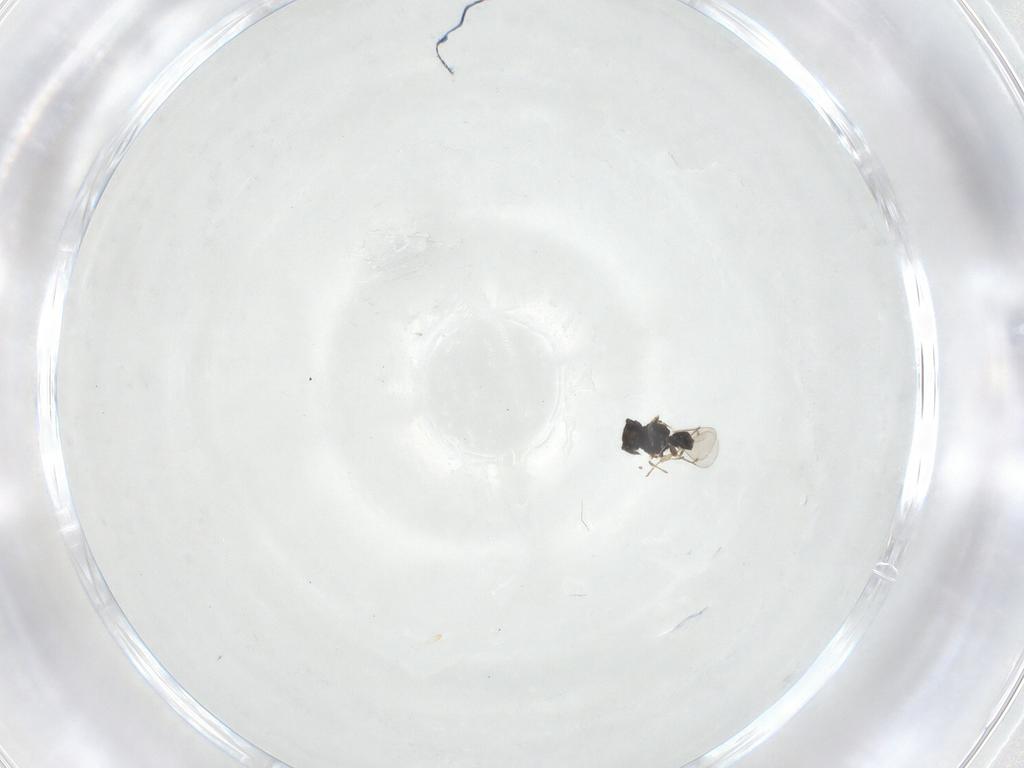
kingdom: Animalia
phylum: Arthropoda
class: Insecta
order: Hymenoptera
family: Eulophidae
